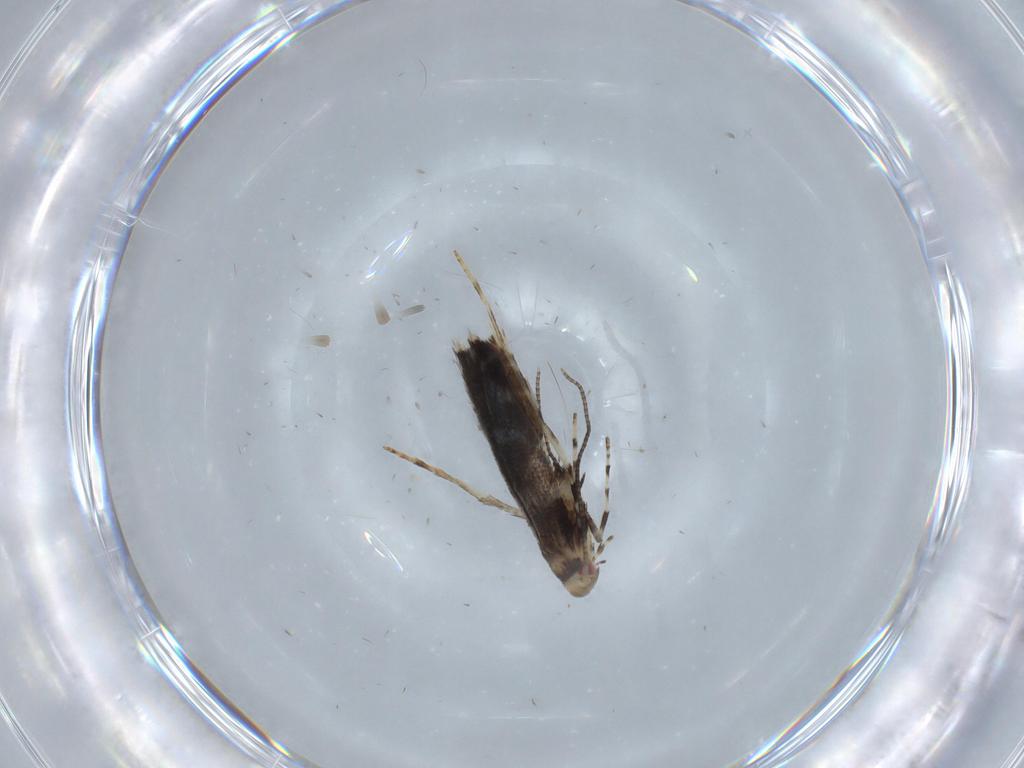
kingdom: Animalia
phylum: Arthropoda
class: Insecta
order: Lepidoptera
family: Gracillariidae
